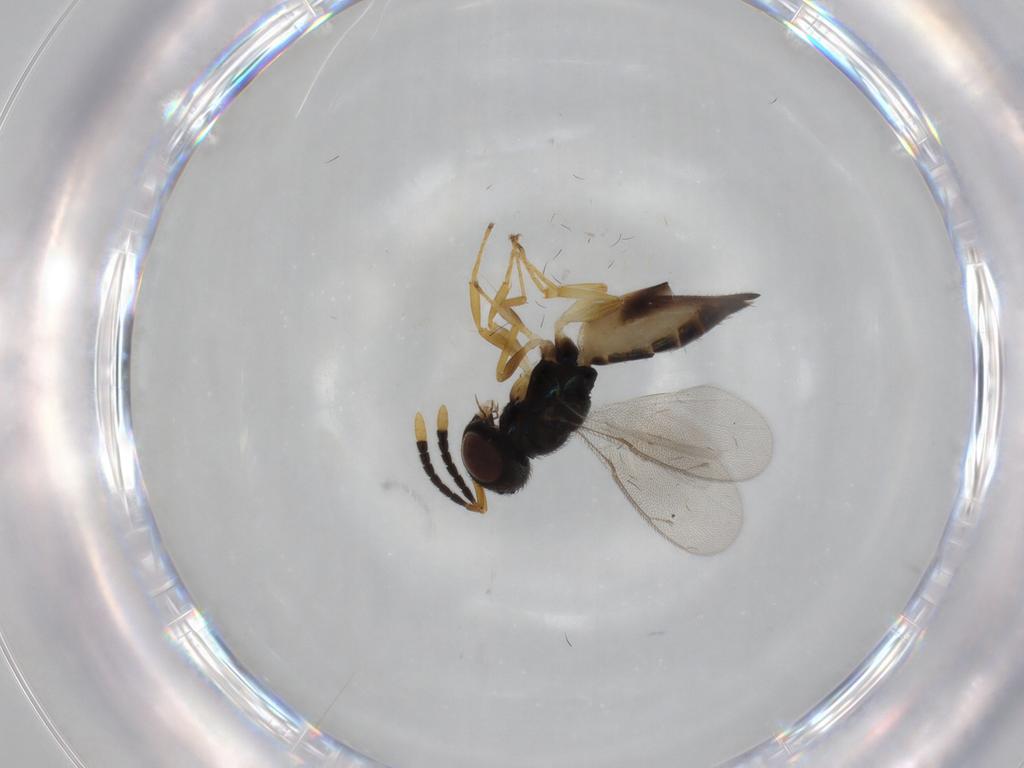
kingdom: Animalia
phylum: Arthropoda
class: Insecta
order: Hymenoptera
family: Pteromalidae
